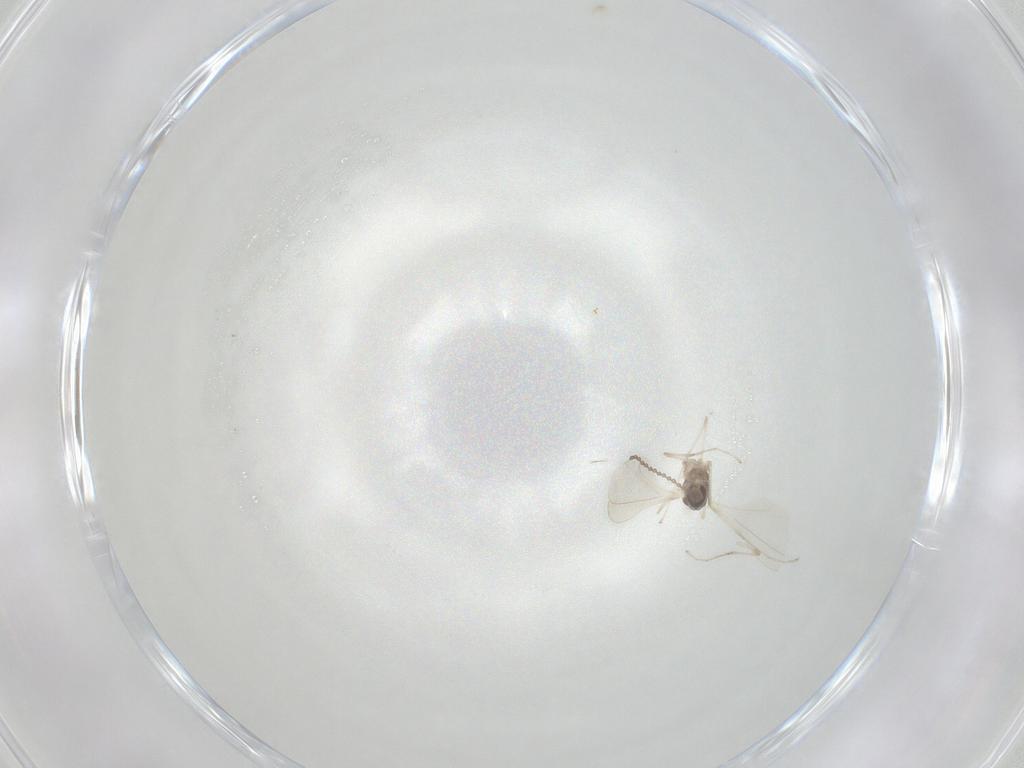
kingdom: Animalia
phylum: Arthropoda
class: Insecta
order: Diptera
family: Cecidomyiidae
